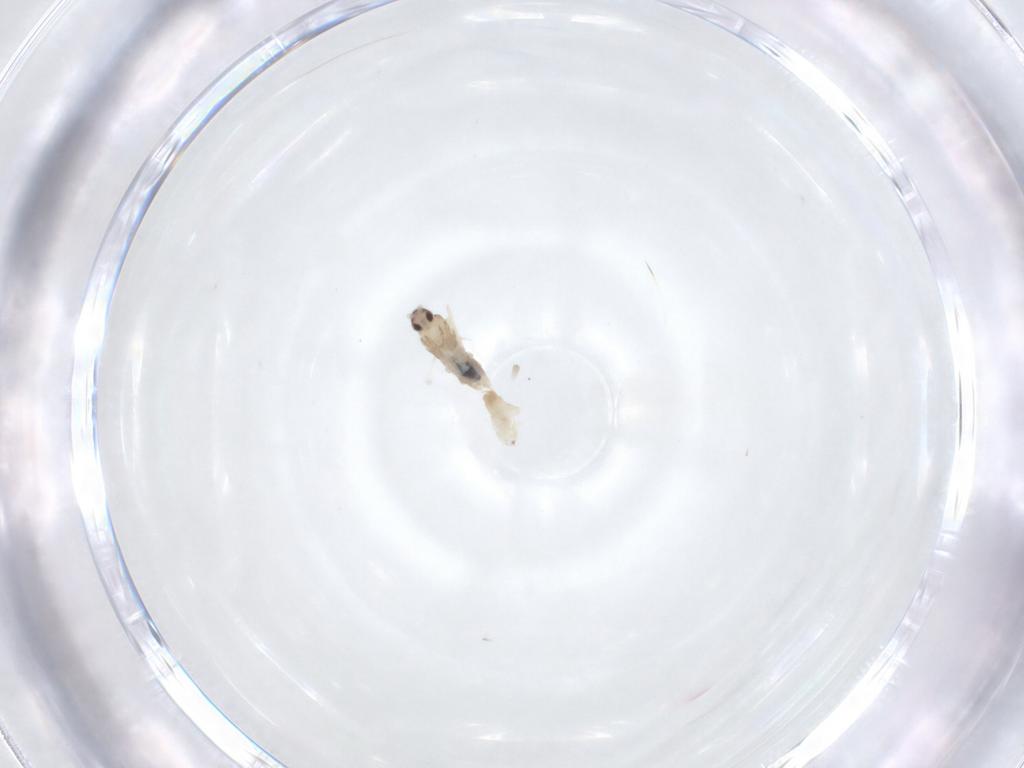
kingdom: Animalia
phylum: Arthropoda
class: Insecta
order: Diptera
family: Cecidomyiidae
